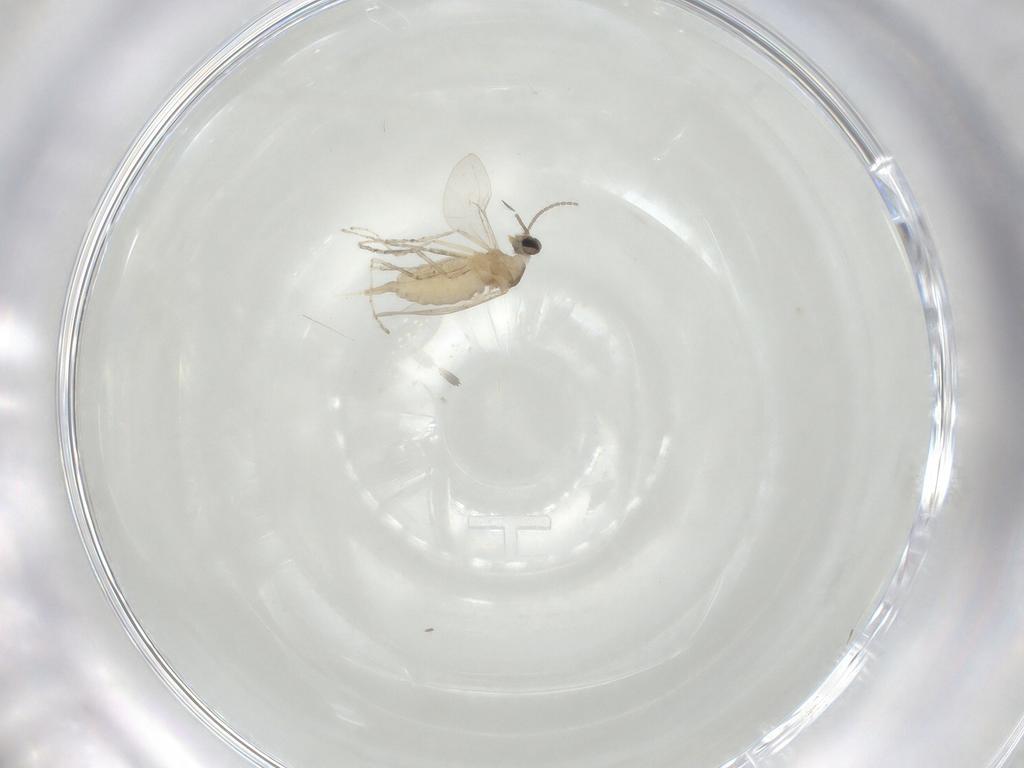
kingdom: Animalia
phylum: Arthropoda
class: Insecta
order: Diptera
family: Cecidomyiidae
